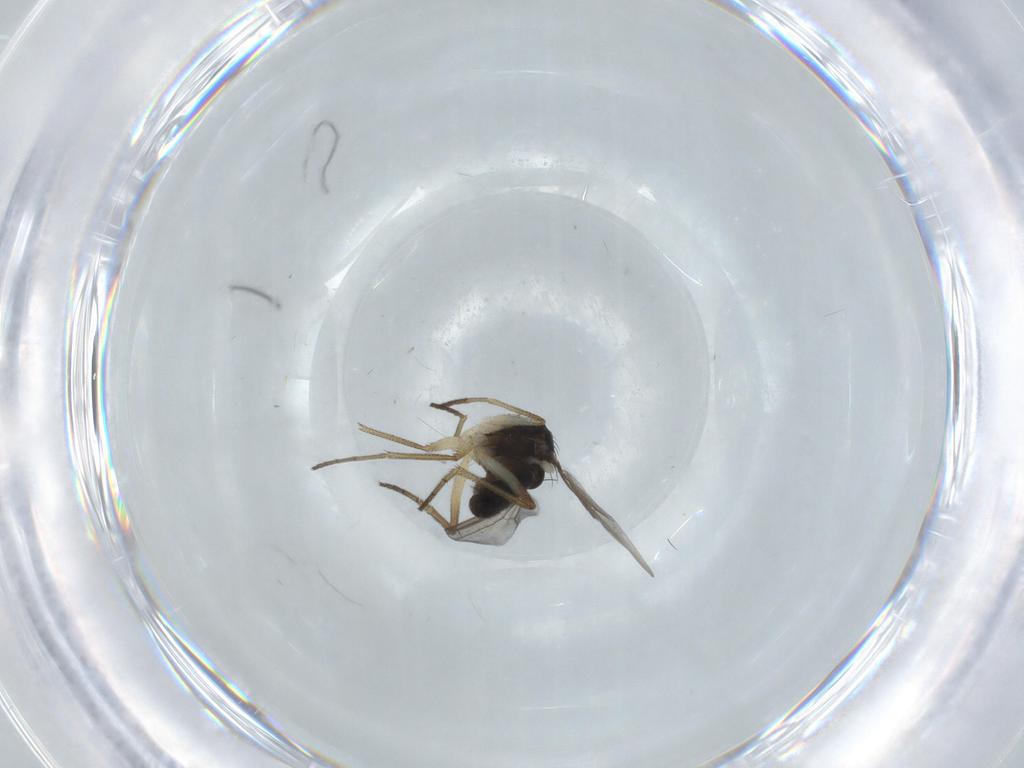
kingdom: Animalia
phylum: Arthropoda
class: Insecta
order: Diptera
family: Dolichopodidae
